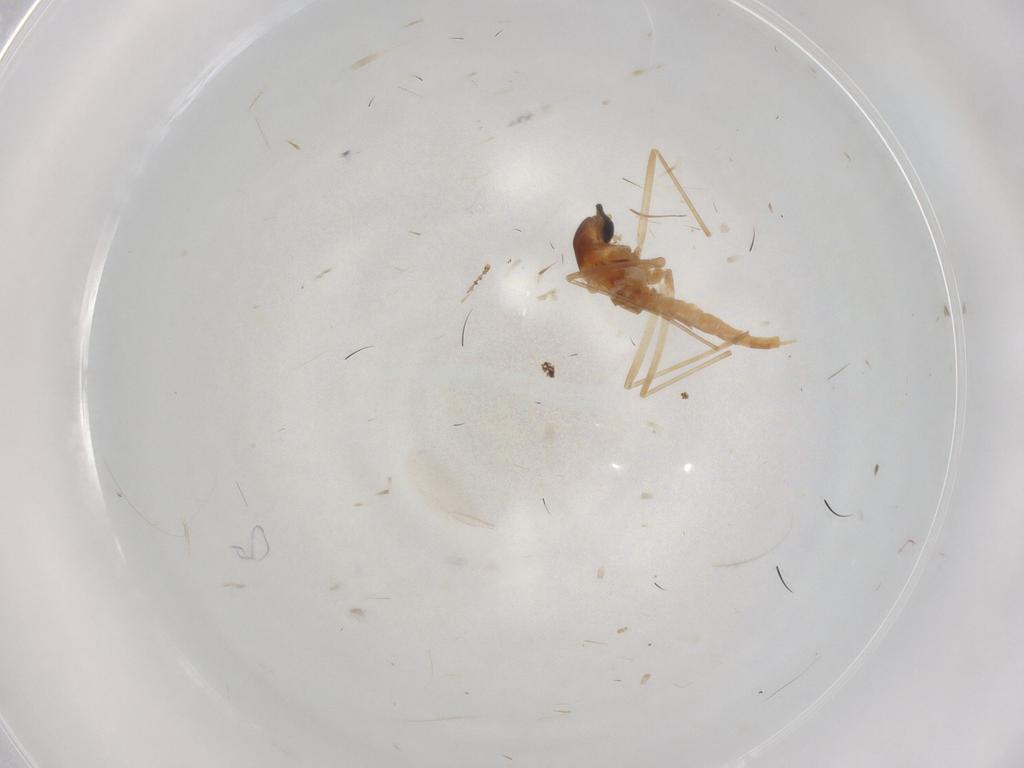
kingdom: Animalia
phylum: Arthropoda
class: Insecta
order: Diptera
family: Cecidomyiidae
